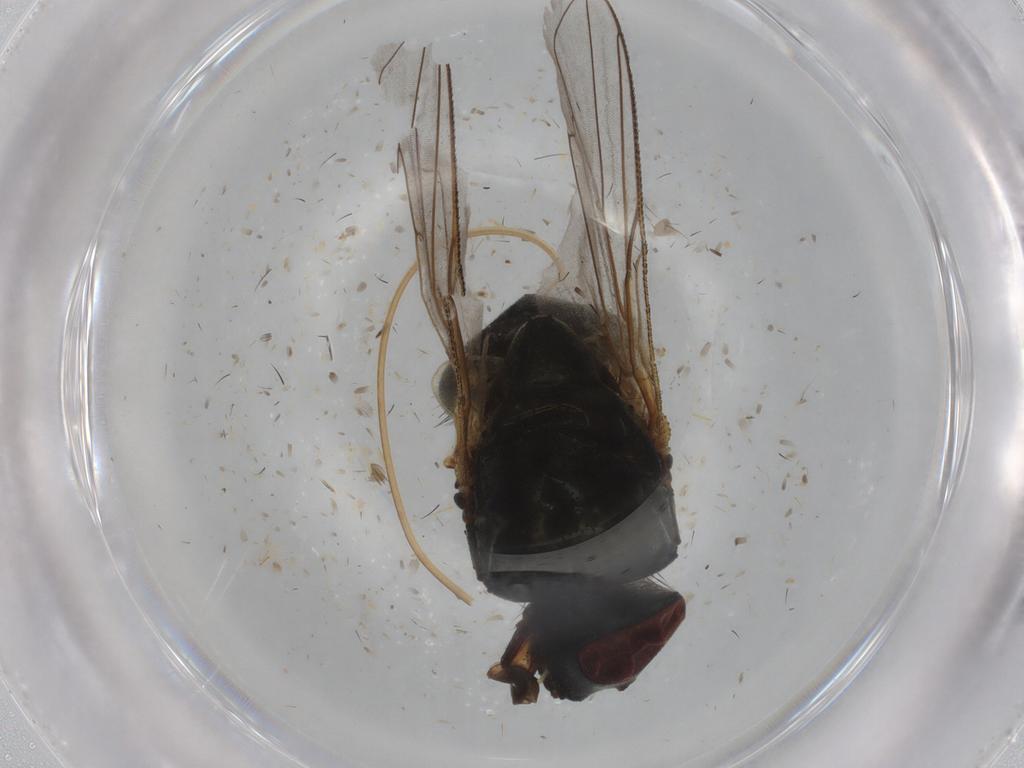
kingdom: Animalia
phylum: Arthropoda
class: Insecta
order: Diptera
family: Muscidae
